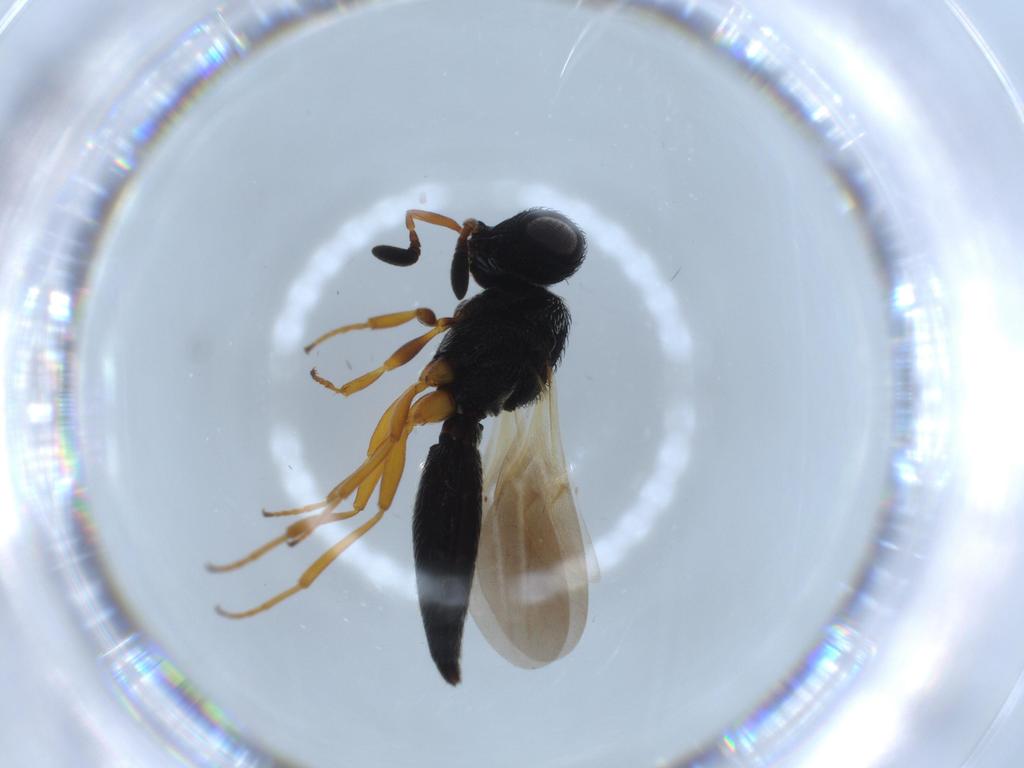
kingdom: Animalia
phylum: Arthropoda
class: Insecta
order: Hymenoptera
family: Scelionidae
